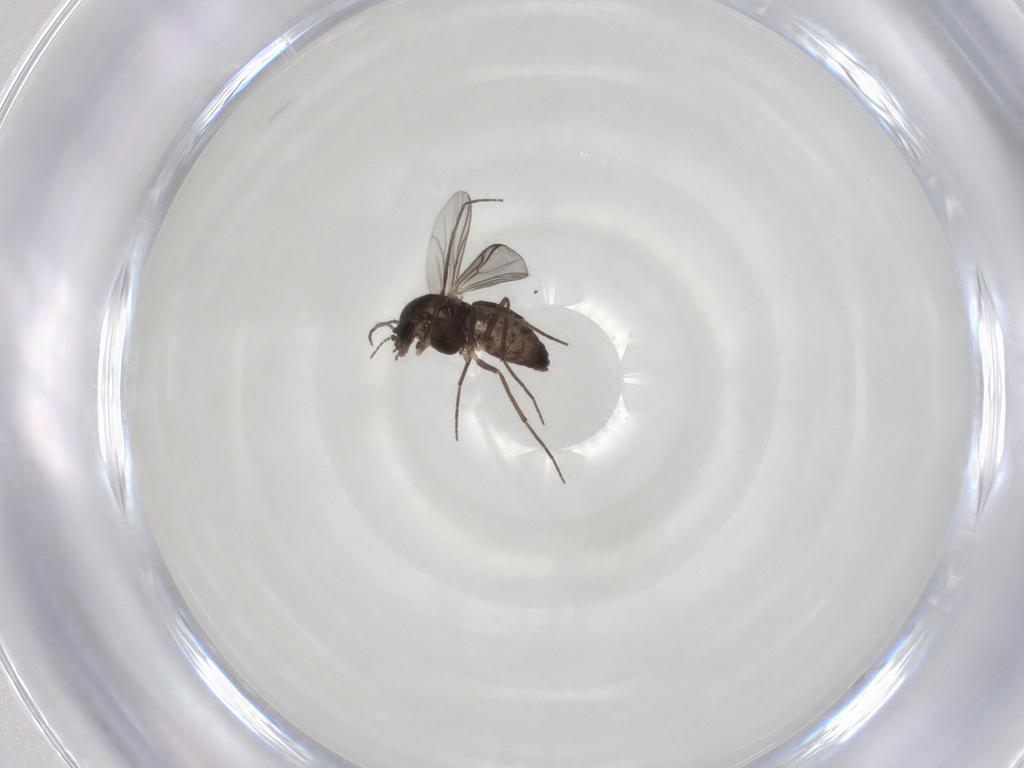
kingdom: Animalia
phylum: Arthropoda
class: Insecta
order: Diptera
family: Chironomidae
